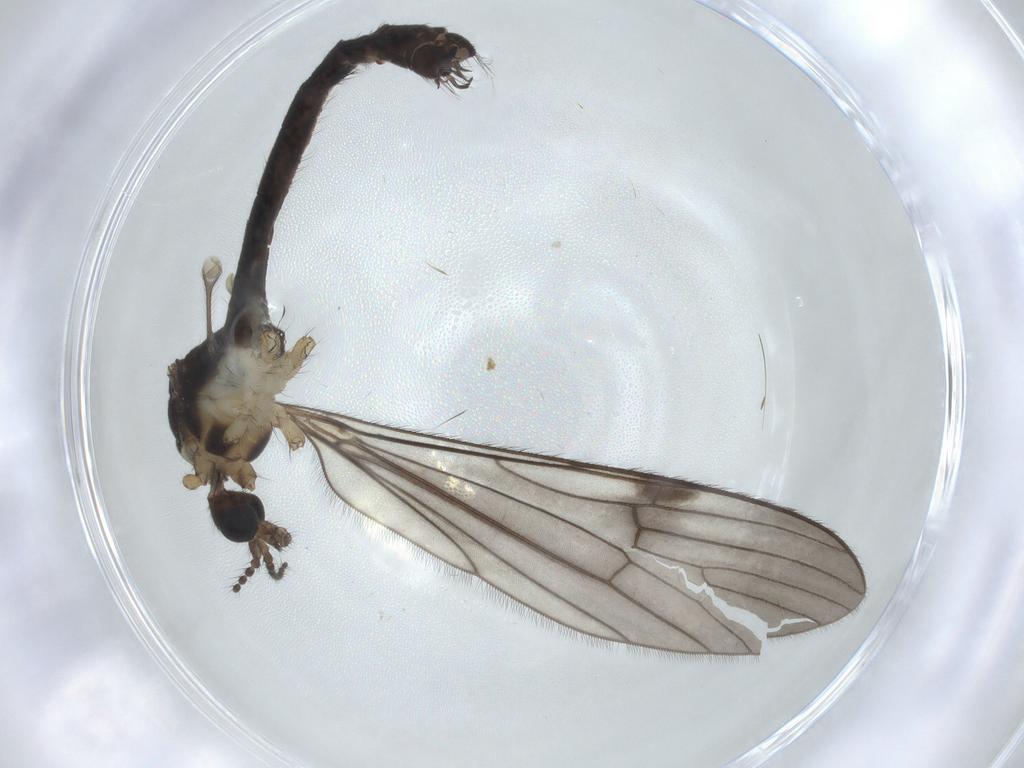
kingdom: Animalia
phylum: Arthropoda
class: Insecta
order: Diptera
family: Limoniidae
